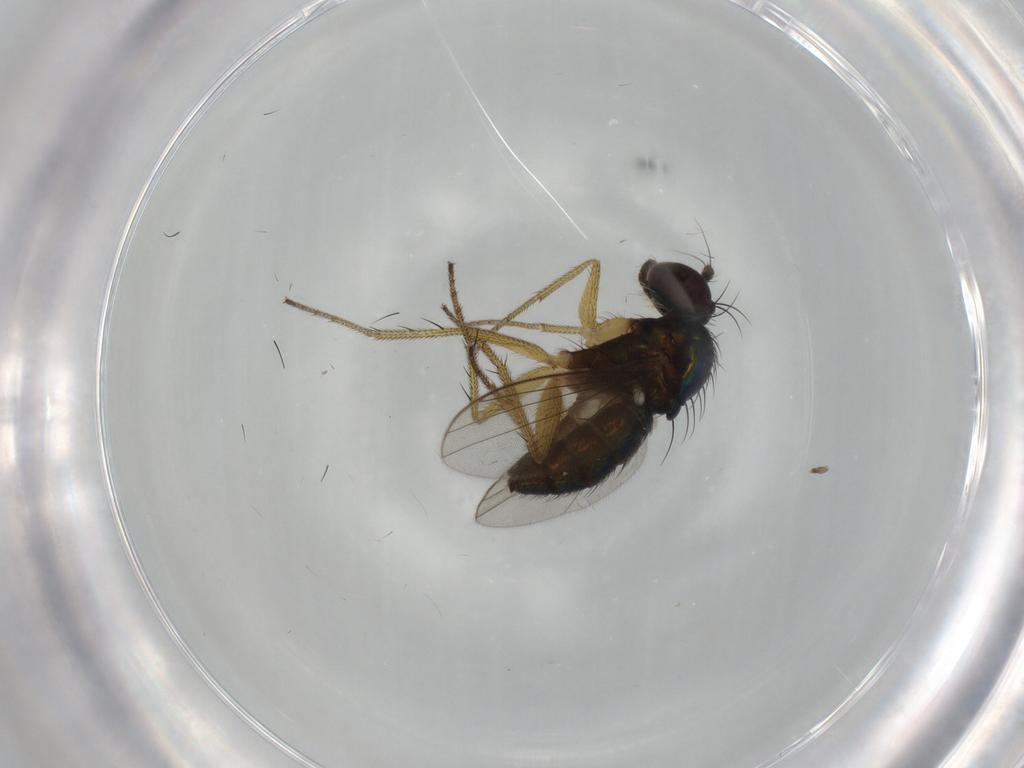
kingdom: Animalia
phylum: Arthropoda
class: Insecta
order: Diptera
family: Dolichopodidae
